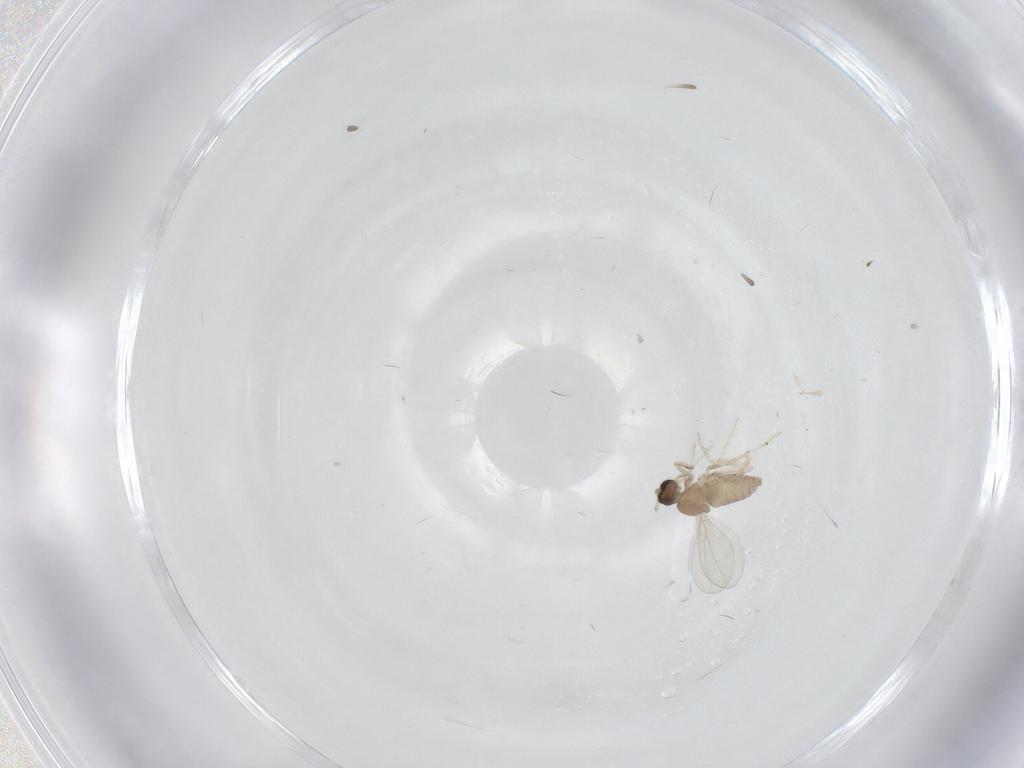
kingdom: Animalia
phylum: Arthropoda
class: Insecta
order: Diptera
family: Cecidomyiidae
